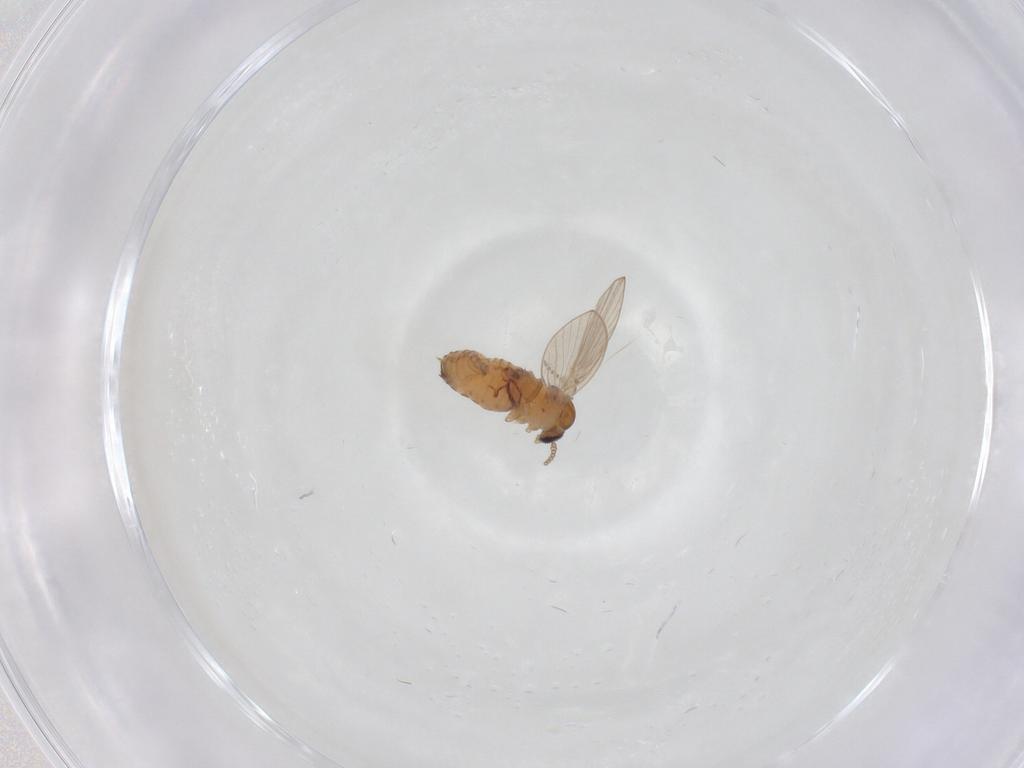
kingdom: Animalia
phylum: Arthropoda
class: Insecta
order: Diptera
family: Psychodidae
